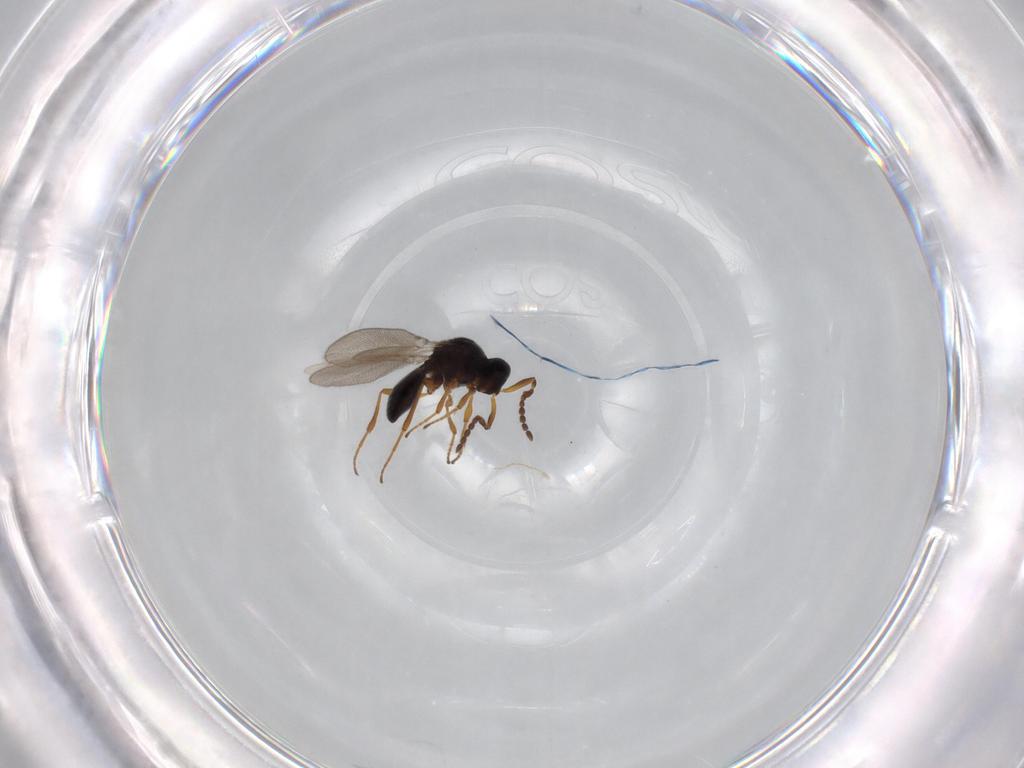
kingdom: Animalia
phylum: Arthropoda
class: Insecta
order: Hymenoptera
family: Platygastridae
